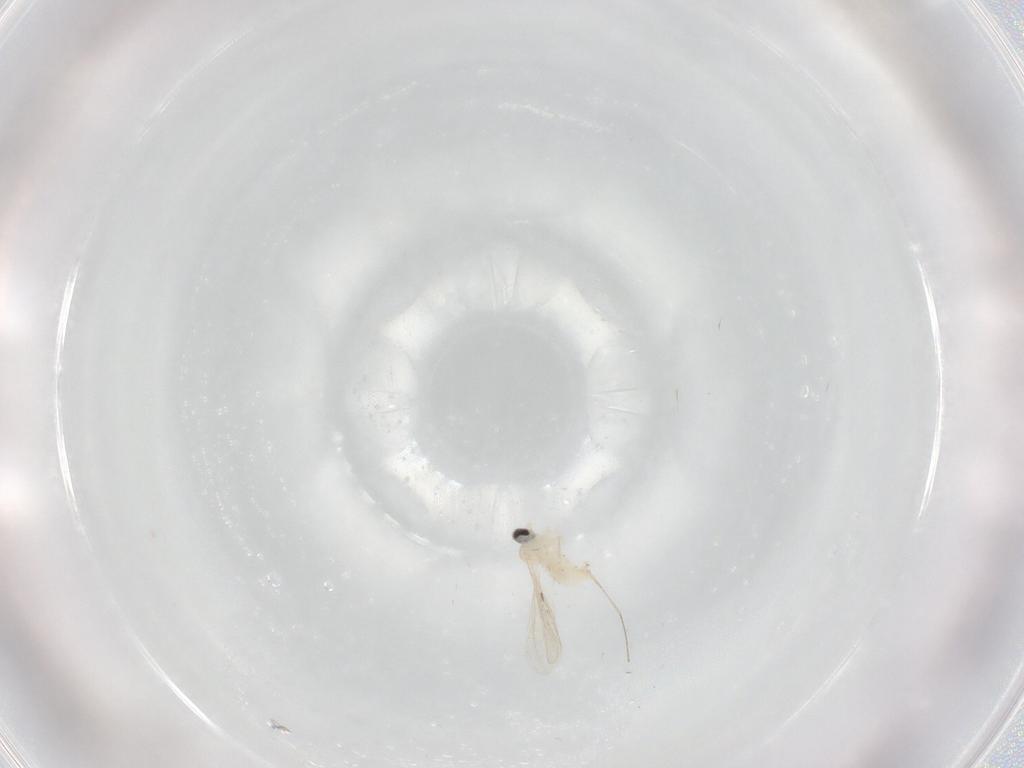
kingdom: Animalia
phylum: Arthropoda
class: Insecta
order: Diptera
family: Cecidomyiidae
